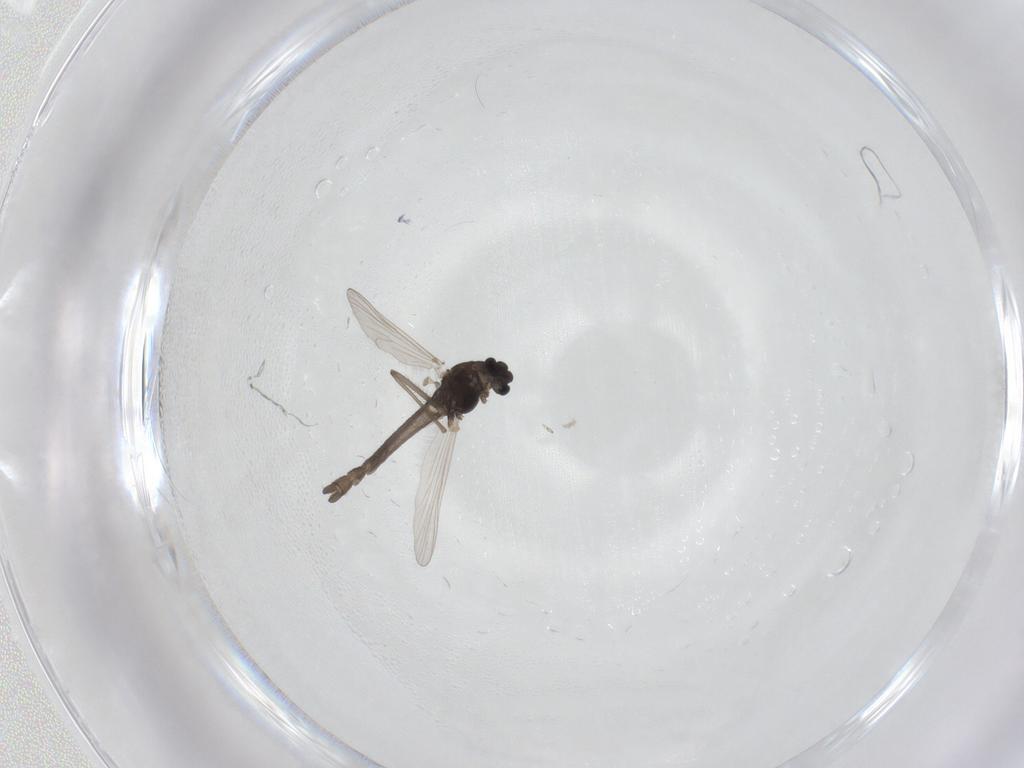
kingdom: Animalia
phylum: Arthropoda
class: Insecta
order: Diptera
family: Chironomidae
